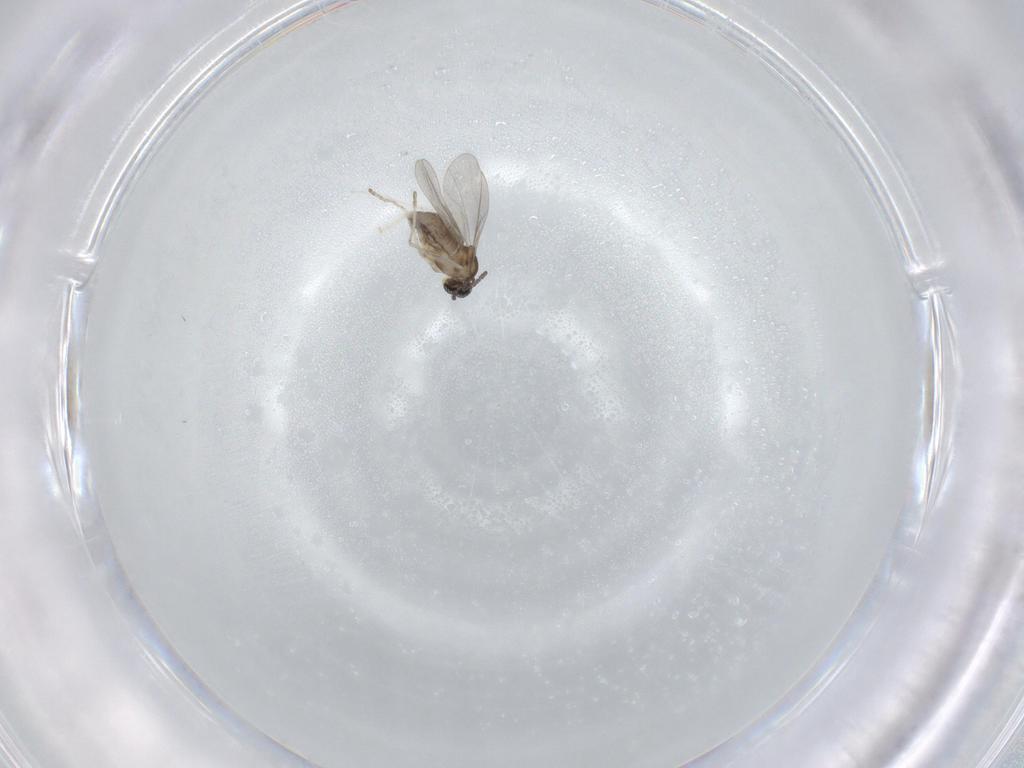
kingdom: Animalia
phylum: Arthropoda
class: Insecta
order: Diptera
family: Cecidomyiidae
